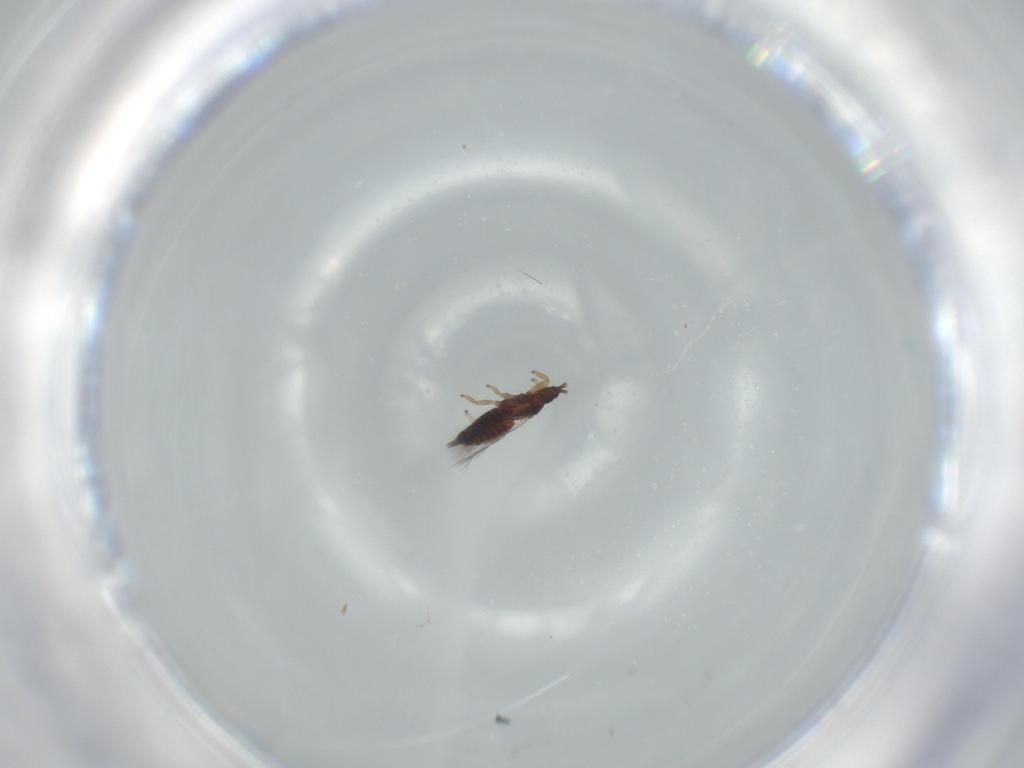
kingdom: Animalia
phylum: Arthropoda
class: Insecta
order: Thysanoptera
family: Phlaeothripidae
